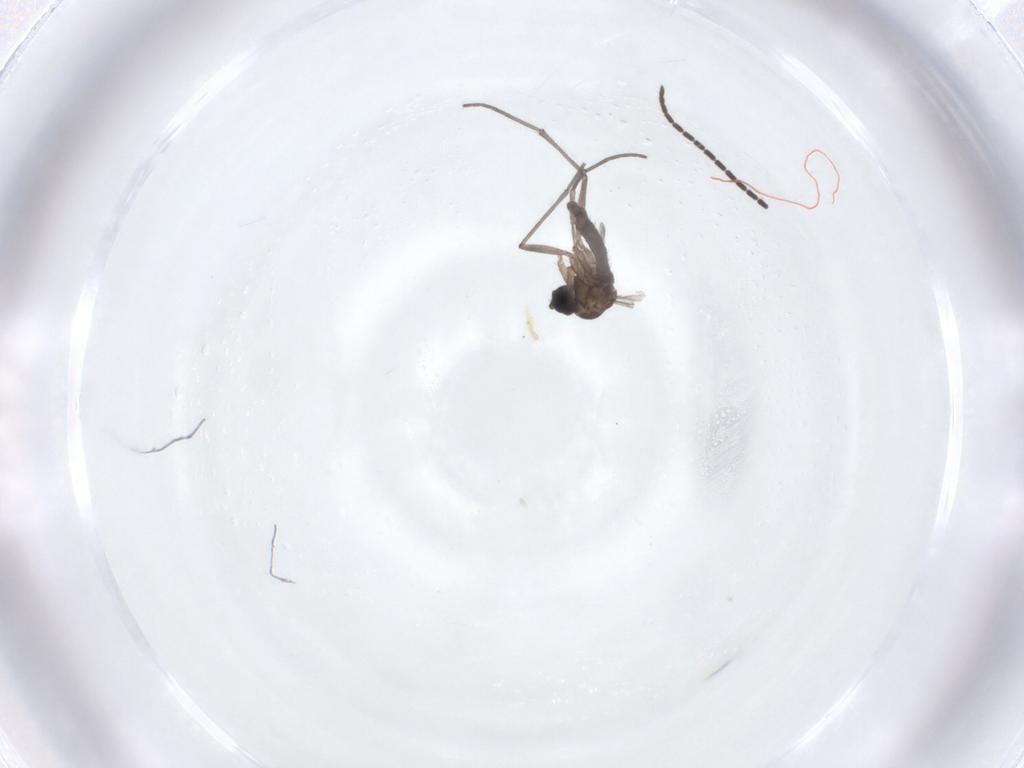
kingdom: Animalia
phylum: Arthropoda
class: Insecta
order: Diptera
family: Sciaridae
